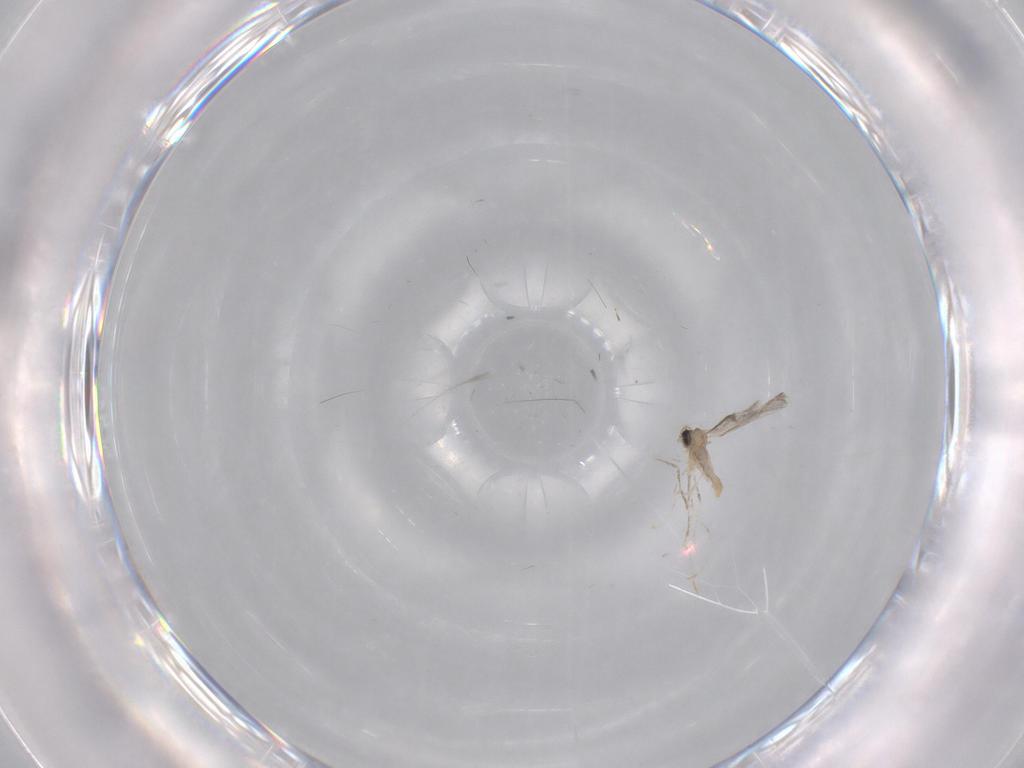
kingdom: Animalia
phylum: Arthropoda
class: Insecta
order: Diptera
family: Cecidomyiidae
